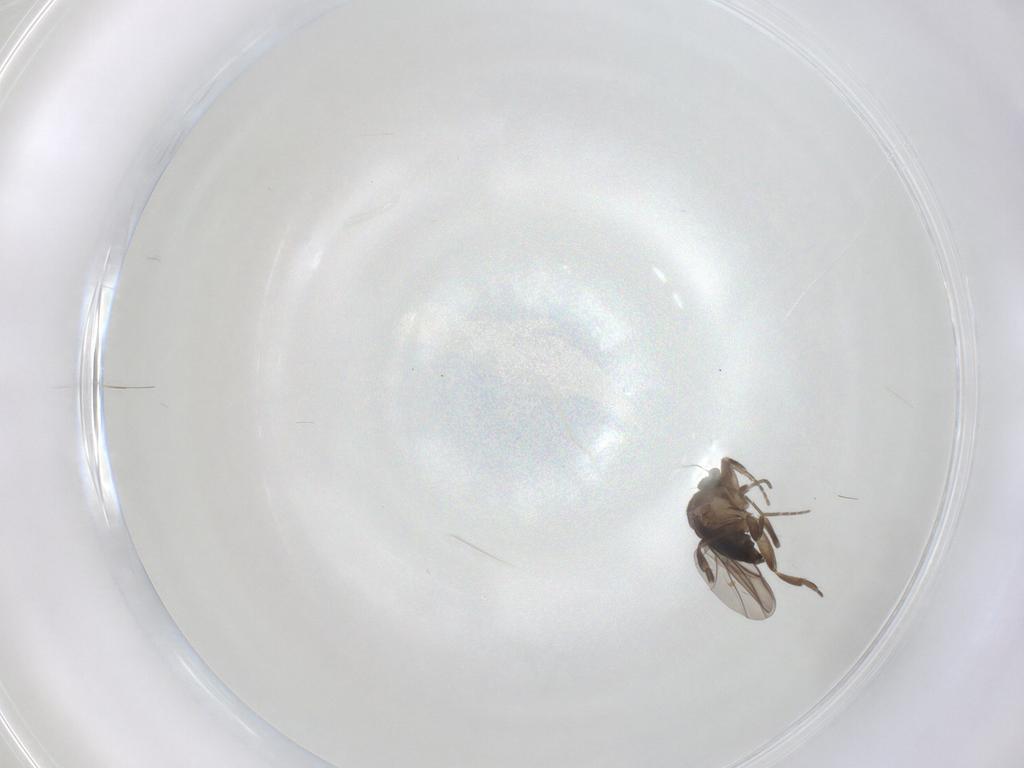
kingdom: Animalia
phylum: Arthropoda
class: Insecta
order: Diptera
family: Phoridae
